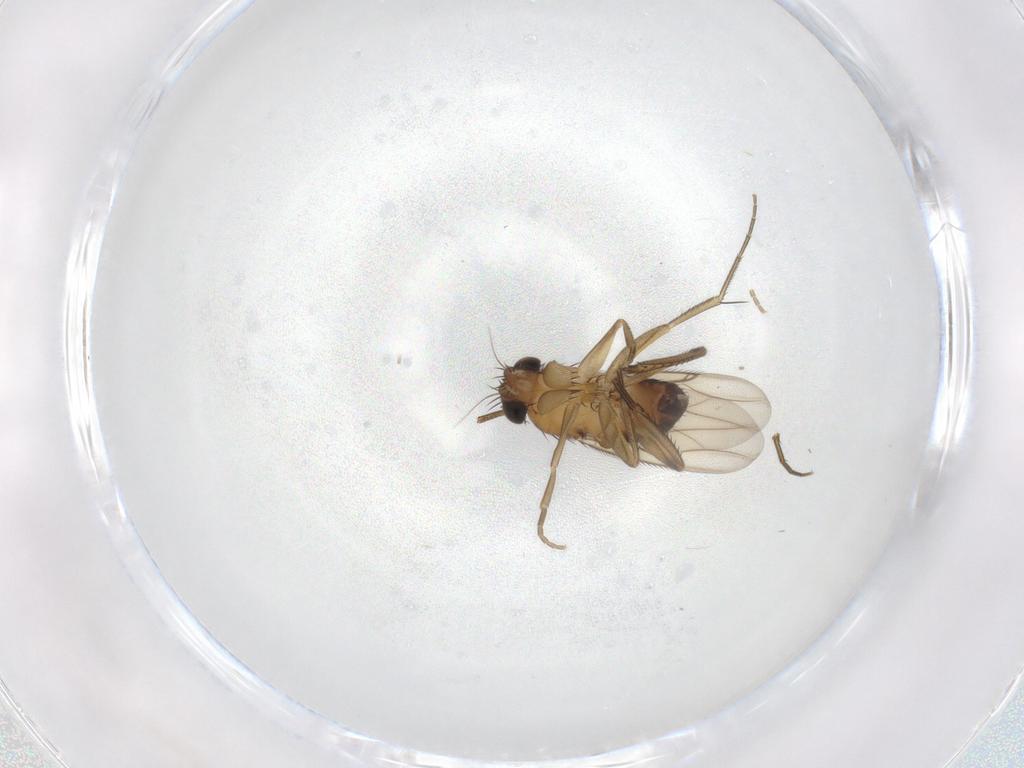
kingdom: Animalia
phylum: Arthropoda
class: Insecta
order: Diptera
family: Phoridae
